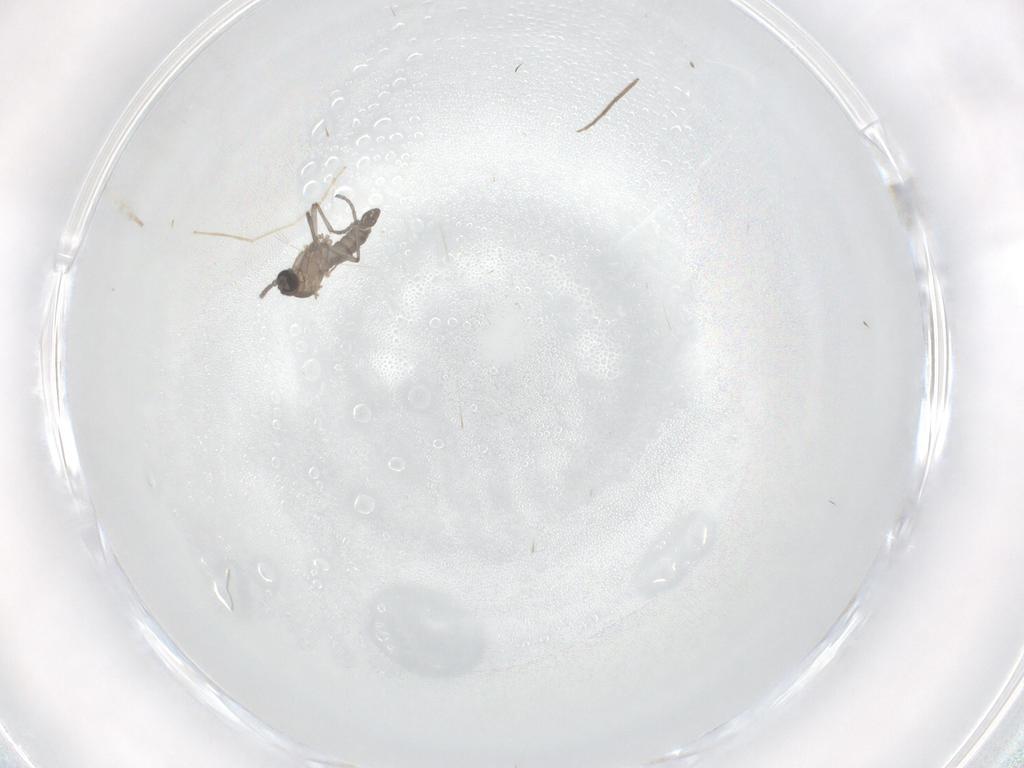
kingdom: Animalia
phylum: Arthropoda
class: Insecta
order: Diptera
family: Sciaridae
